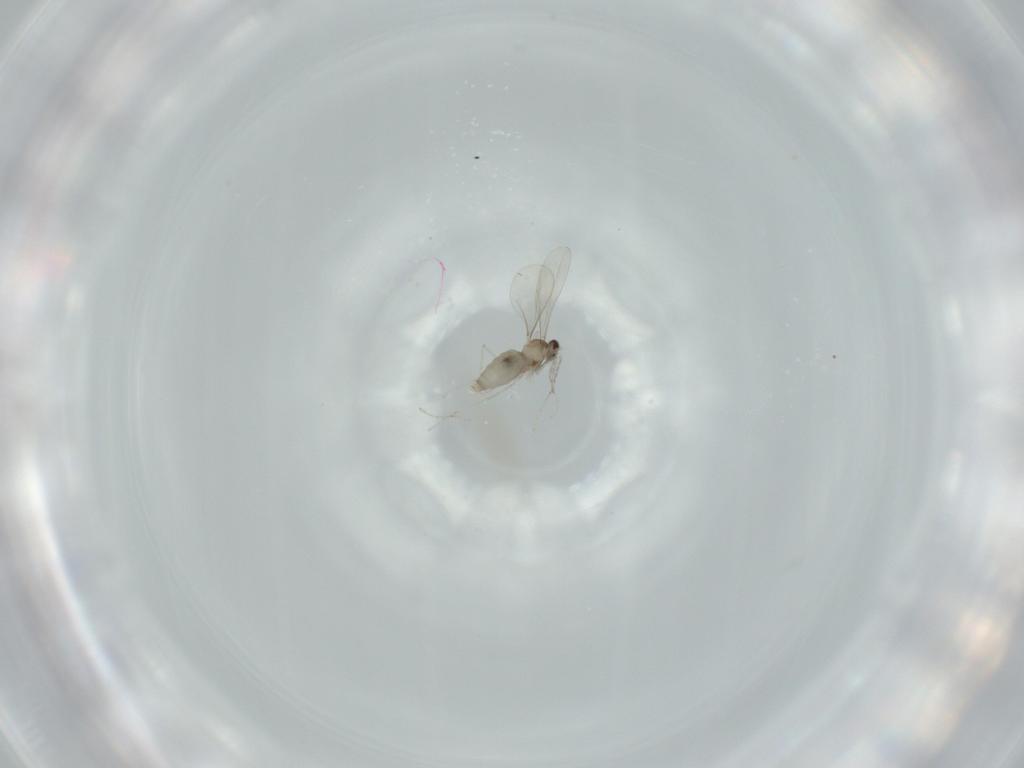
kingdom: Animalia
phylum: Arthropoda
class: Insecta
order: Diptera
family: Cecidomyiidae
